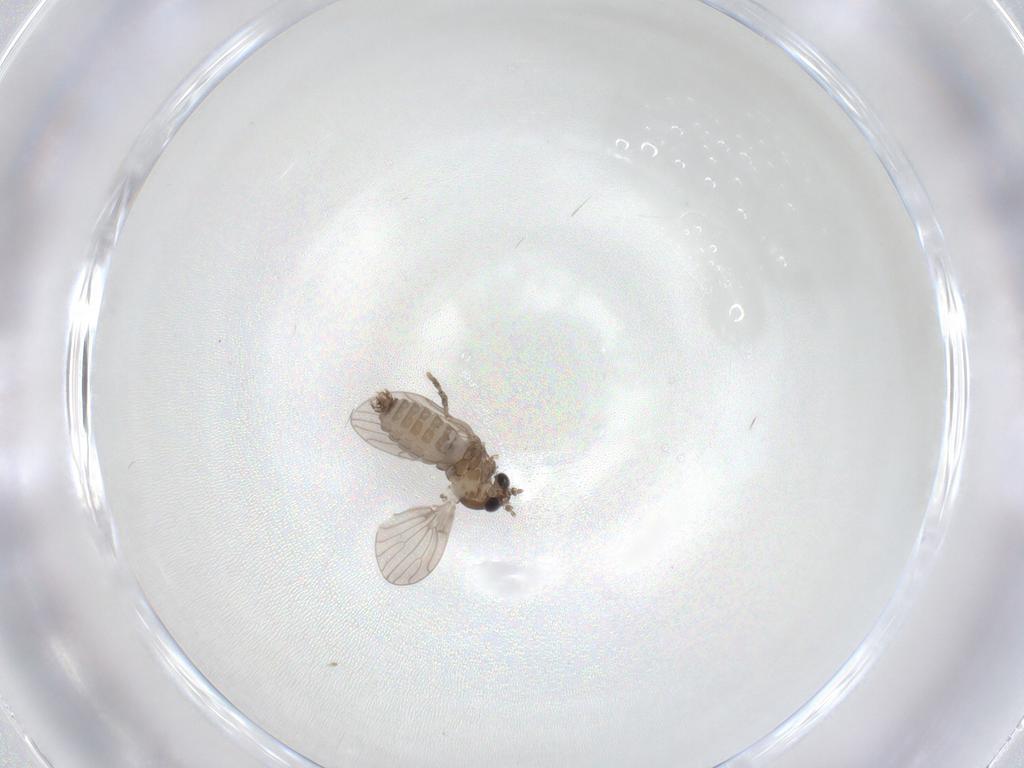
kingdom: Animalia
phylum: Arthropoda
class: Insecta
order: Diptera
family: Psychodidae
